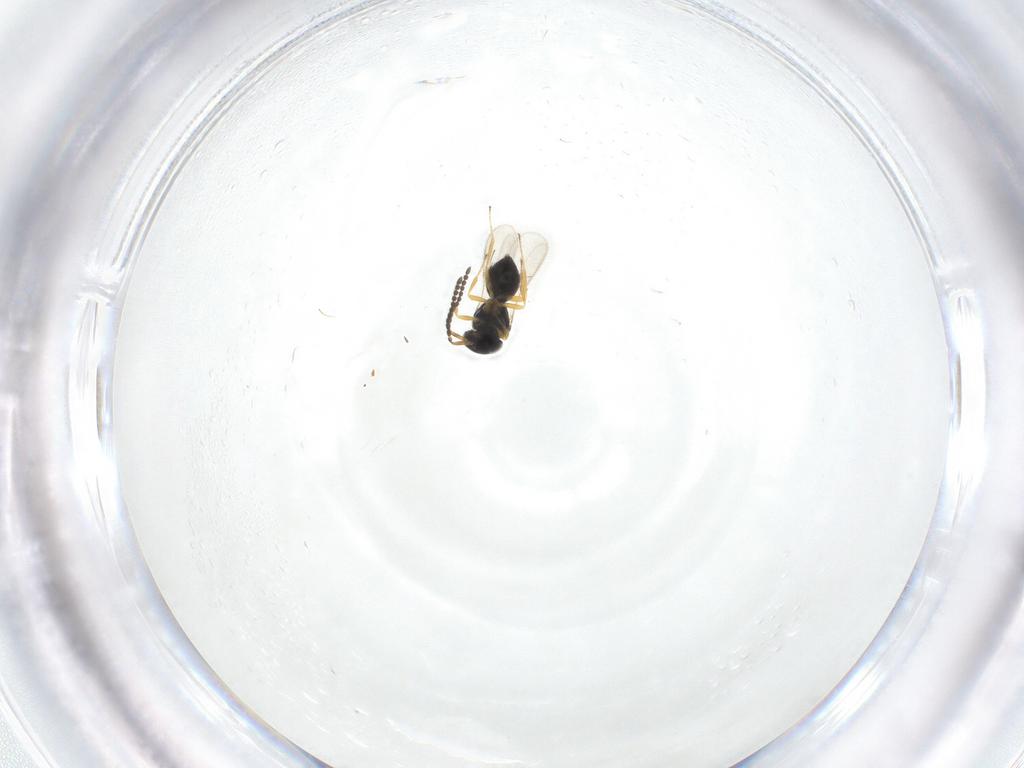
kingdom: Animalia
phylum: Arthropoda
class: Insecta
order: Hymenoptera
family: Scelionidae
